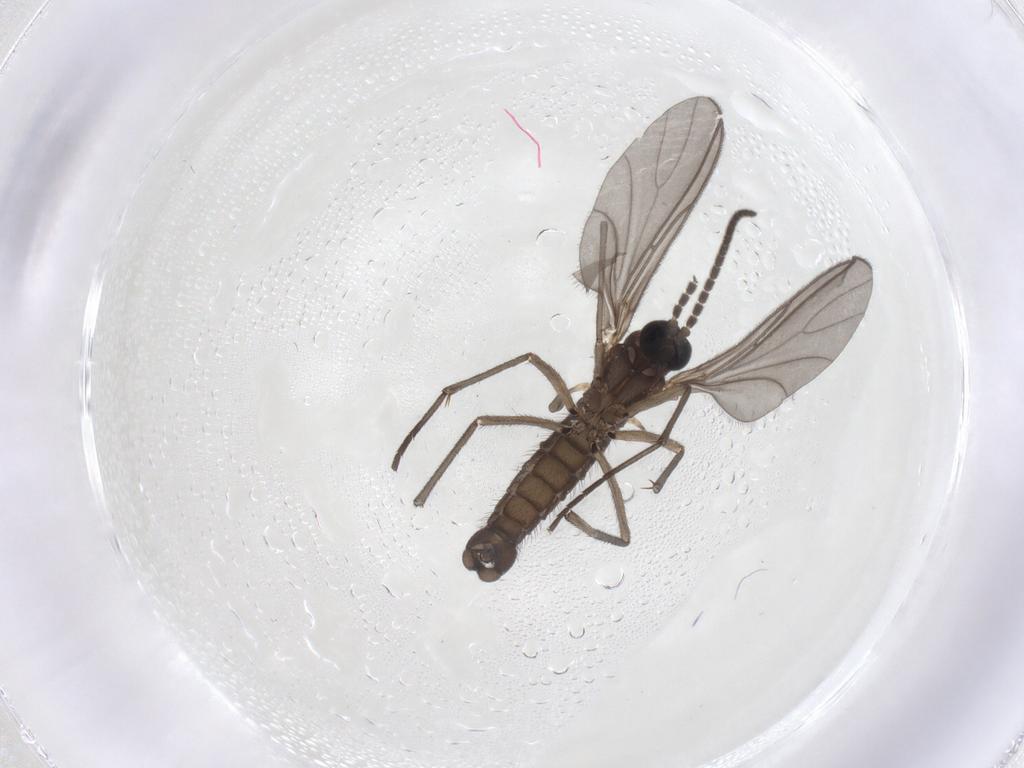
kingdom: Animalia
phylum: Arthropoda
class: Insecta
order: Diptera
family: Sciaridae
